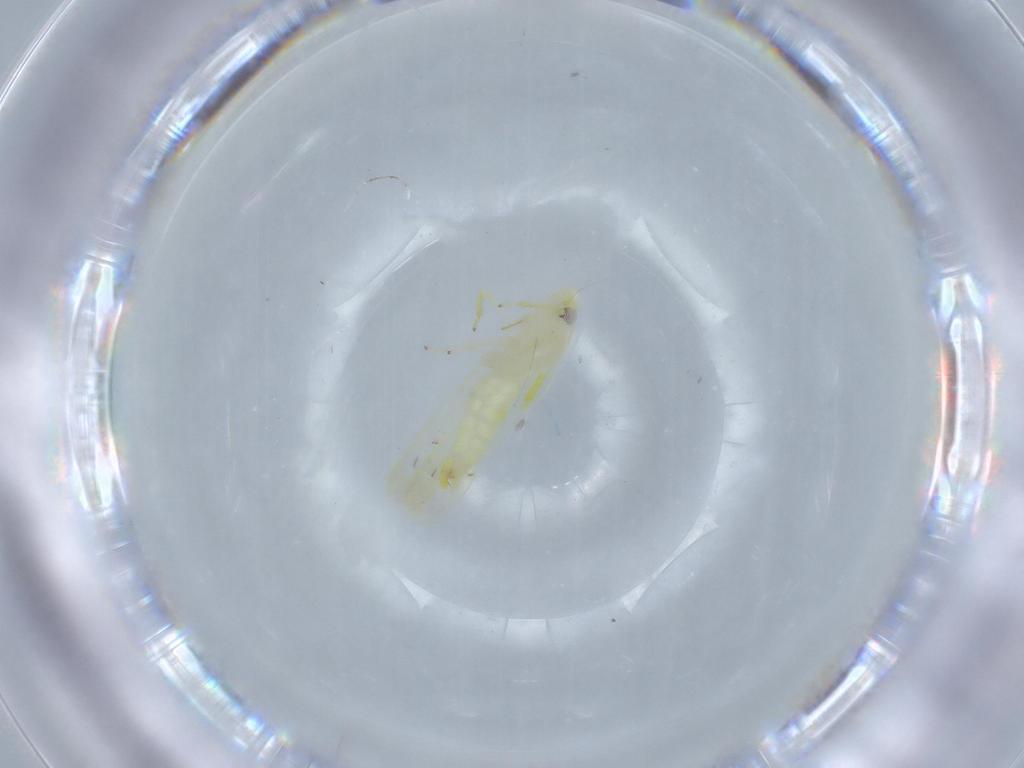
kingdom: Animalia
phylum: Arthropoda
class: Insecta
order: Hemiptera
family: Cicadellidae
